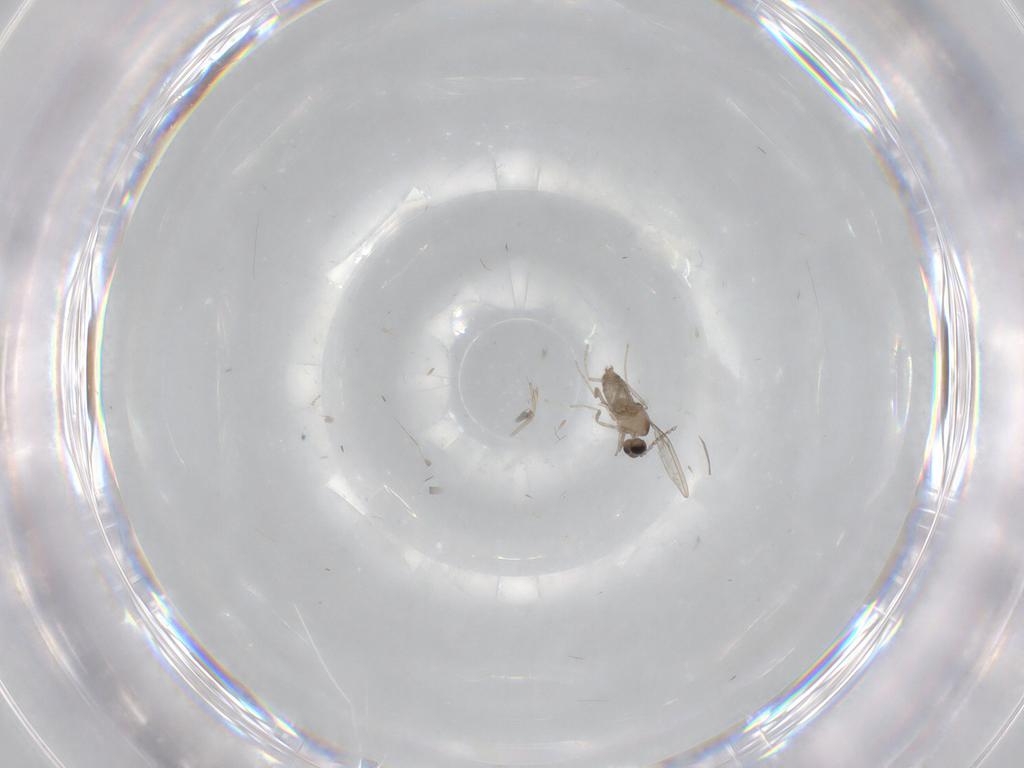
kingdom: Animalia
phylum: Arthropoda
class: Insecta
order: Diptera
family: Cecidomyiidae
